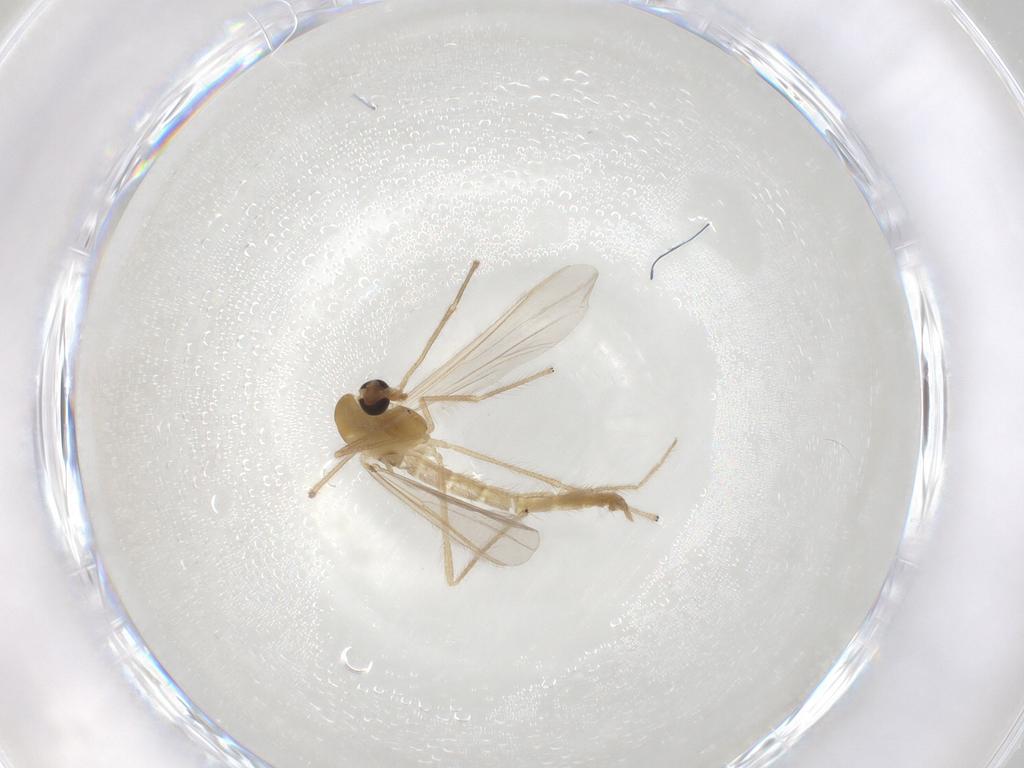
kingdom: Animalia
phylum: Arthropoda
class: Insecta
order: Diptera
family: Chironomidae
